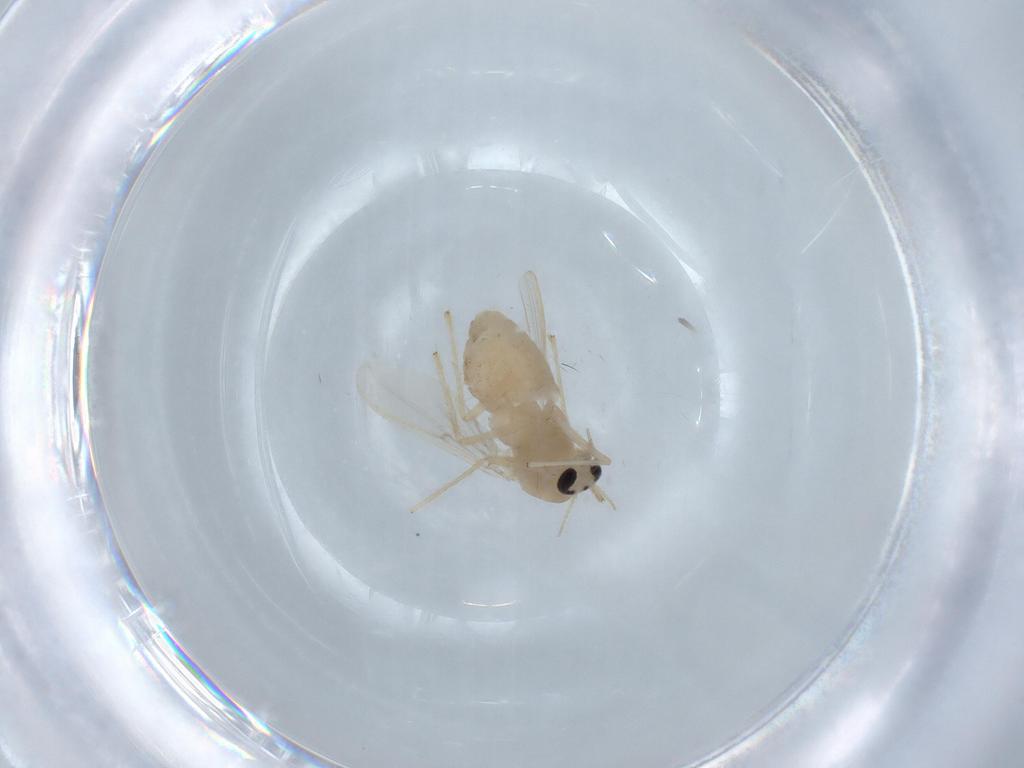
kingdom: Animalia
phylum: Arthropoda
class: Insecta
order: Diptera
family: Chironomidae
